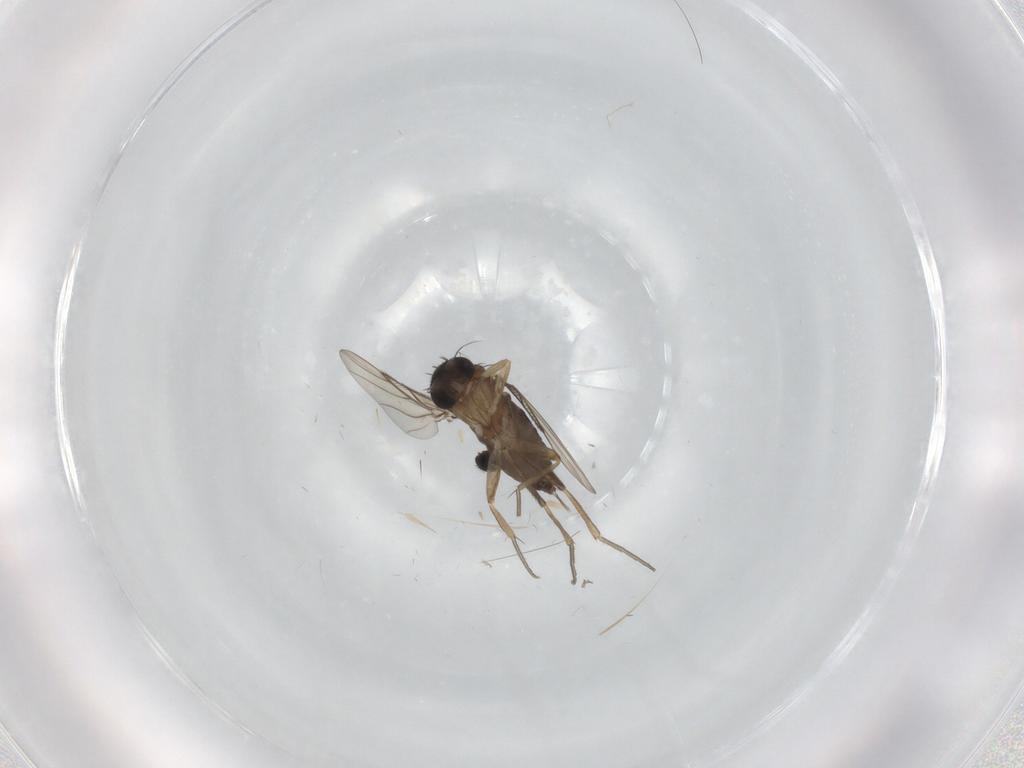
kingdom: Animalia
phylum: Arthropoda
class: Insecta
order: Diptera
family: Phoridae
